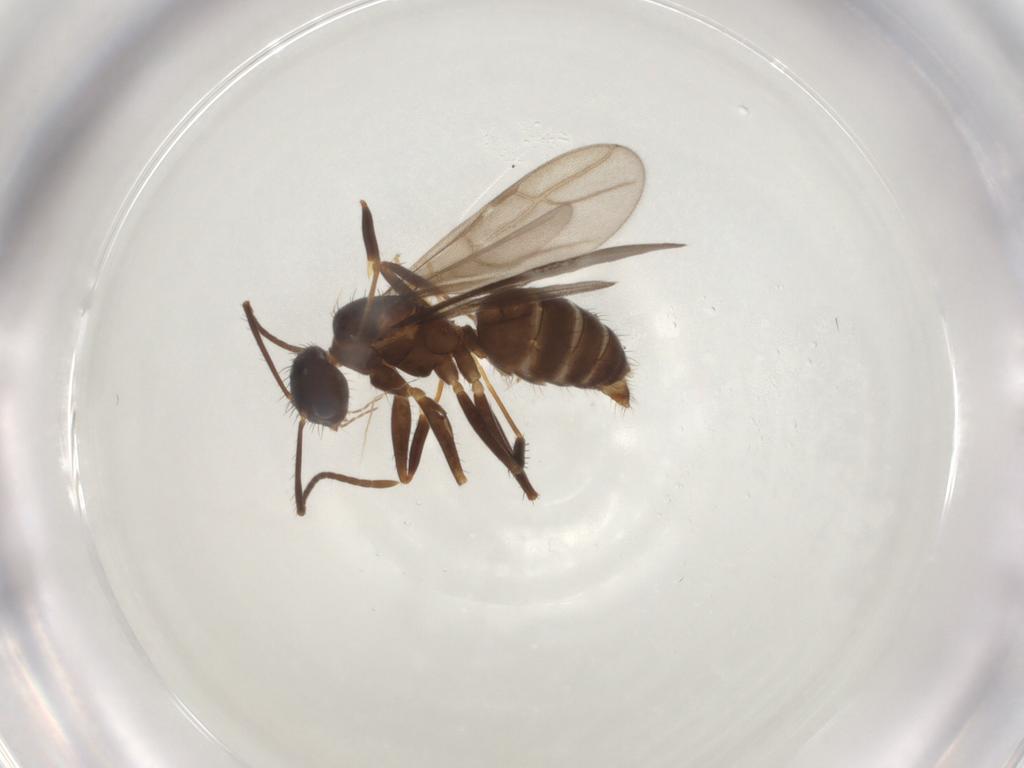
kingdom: Animalia
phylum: Arthropoda
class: Insecta
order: Hymenoptera
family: Formicidae
